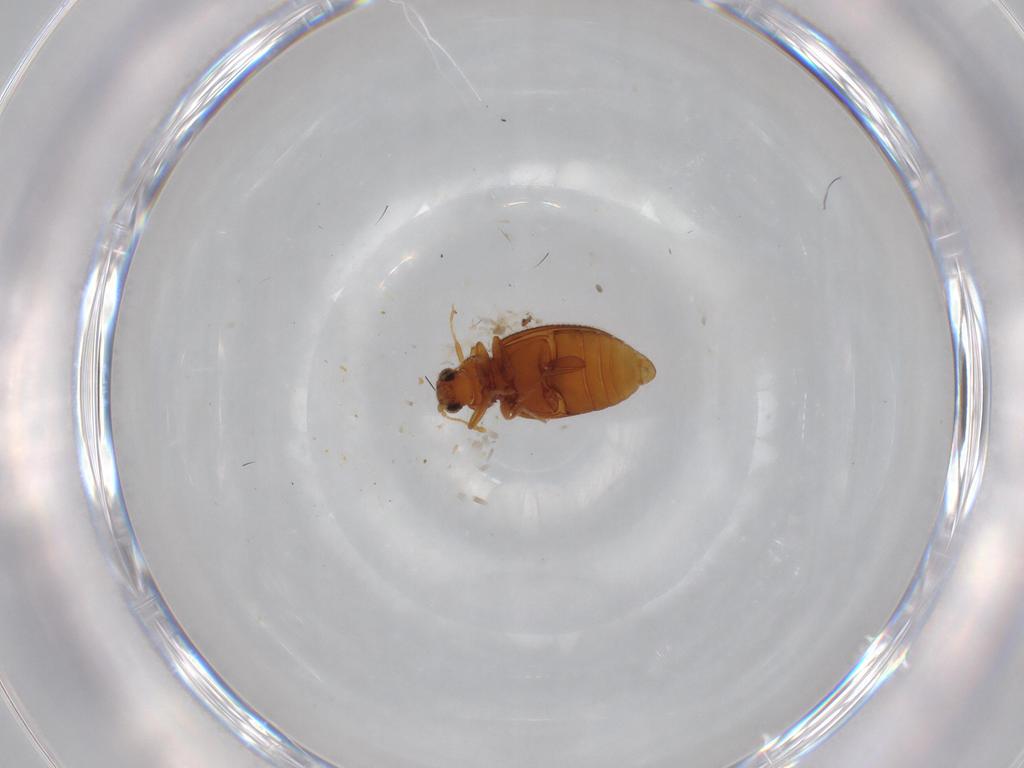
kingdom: Animalia
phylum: Arthropoda
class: Insecta
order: Coleoptera
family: Latridiidae
